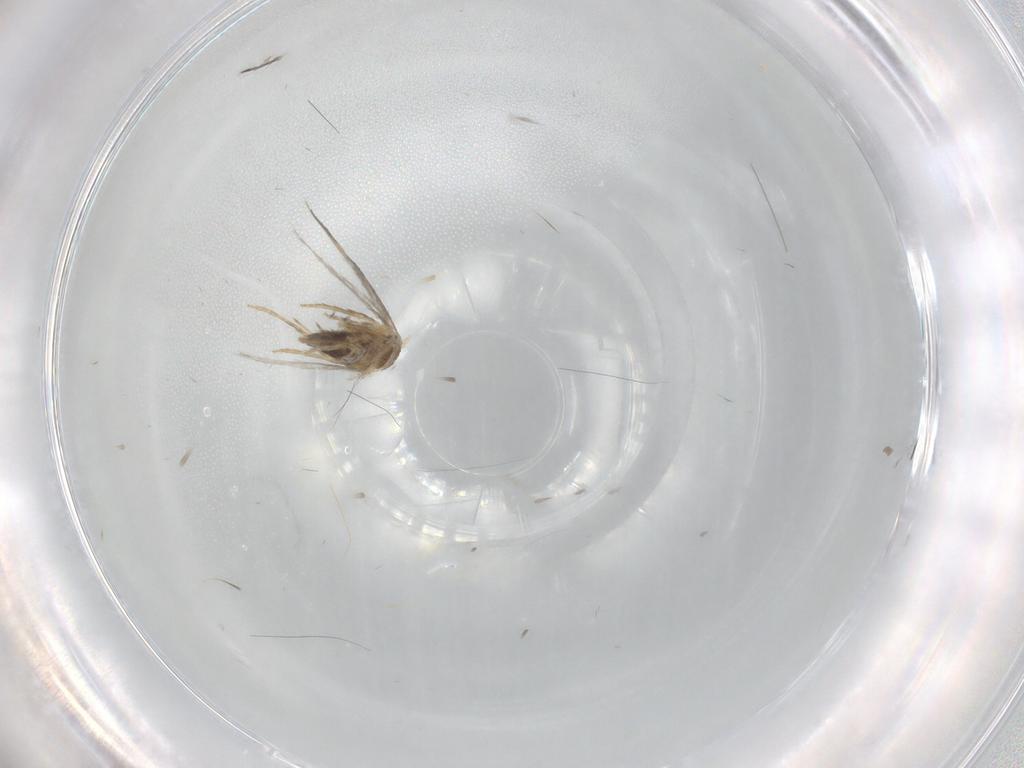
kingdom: Animalia
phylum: Arthropoda
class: Insecta
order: Lepidoptera
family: Nepticulidae
